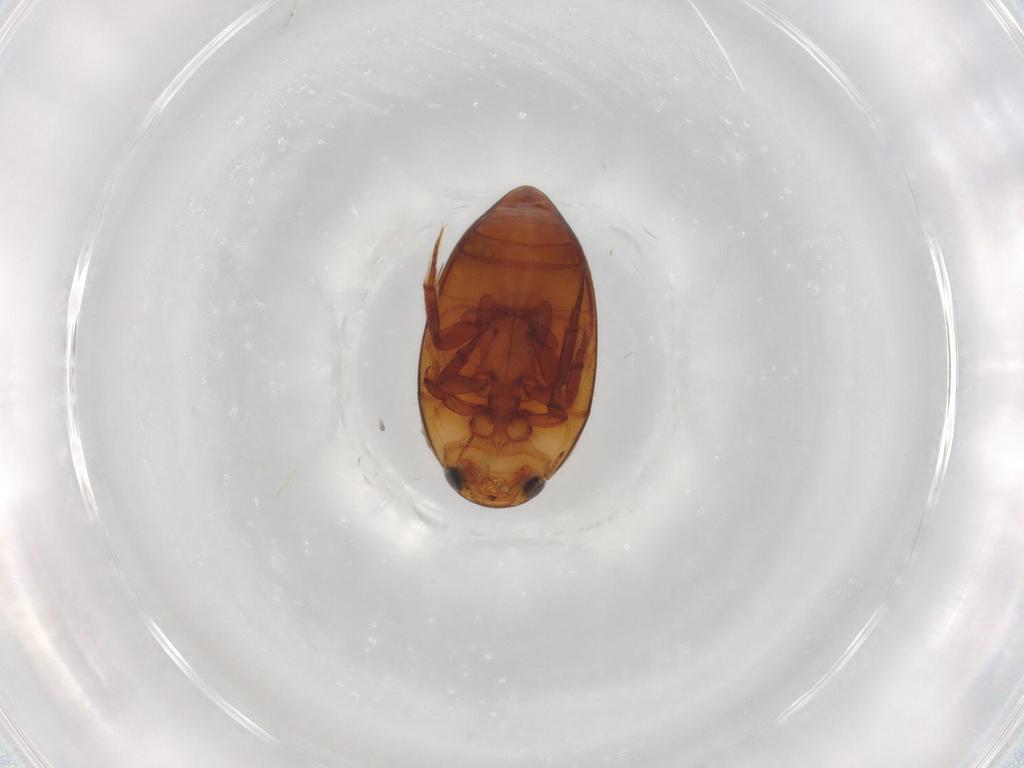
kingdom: Animalia
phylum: Arthropoda
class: Insecta
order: Coleoptera
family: Noteridae
